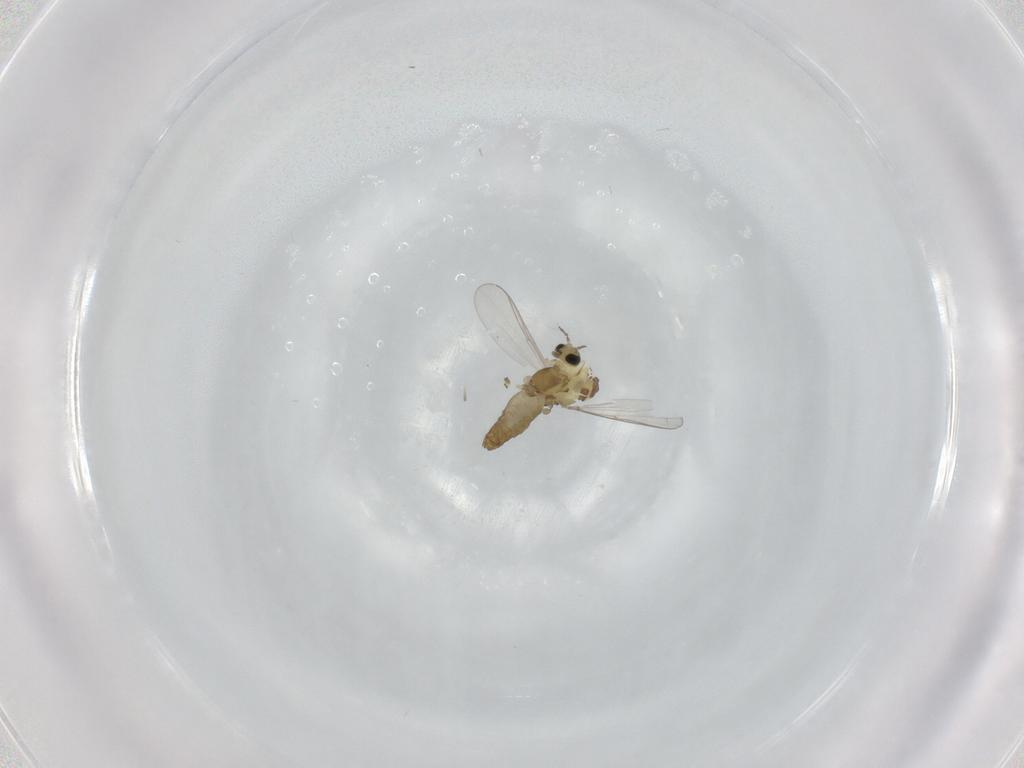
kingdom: Animalia
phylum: Arthropoda
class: Insecta
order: Diptera
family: Chironomidae
